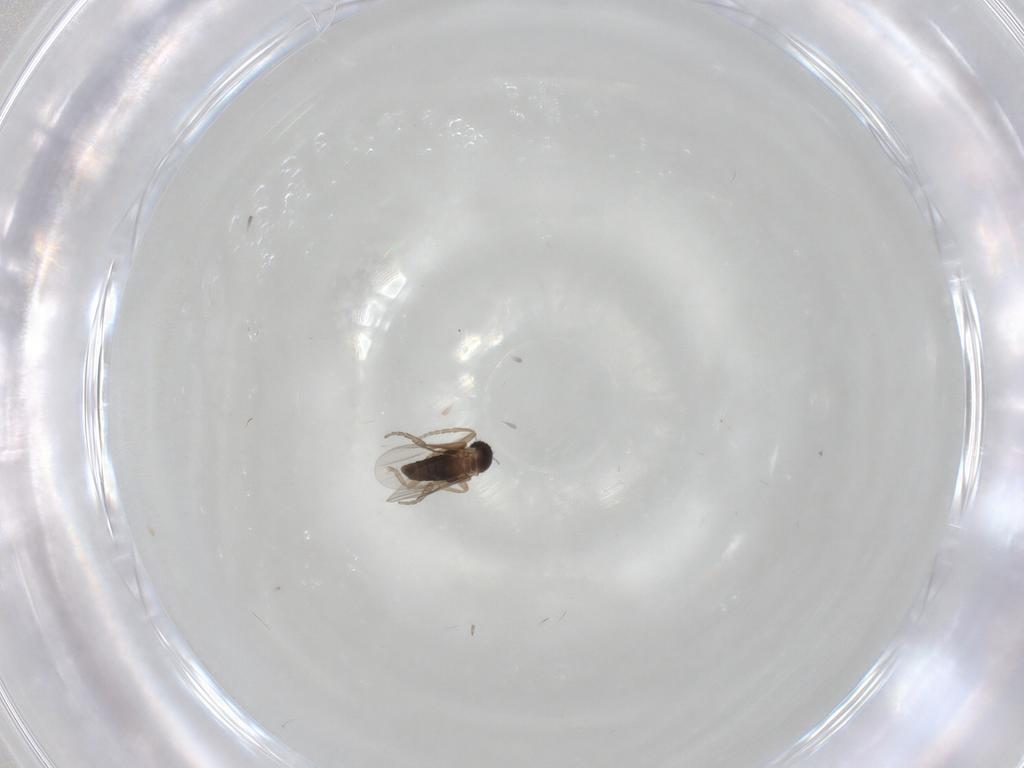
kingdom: Animalia
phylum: Arthropoda
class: Insecta
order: Diptera
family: Phoridae
